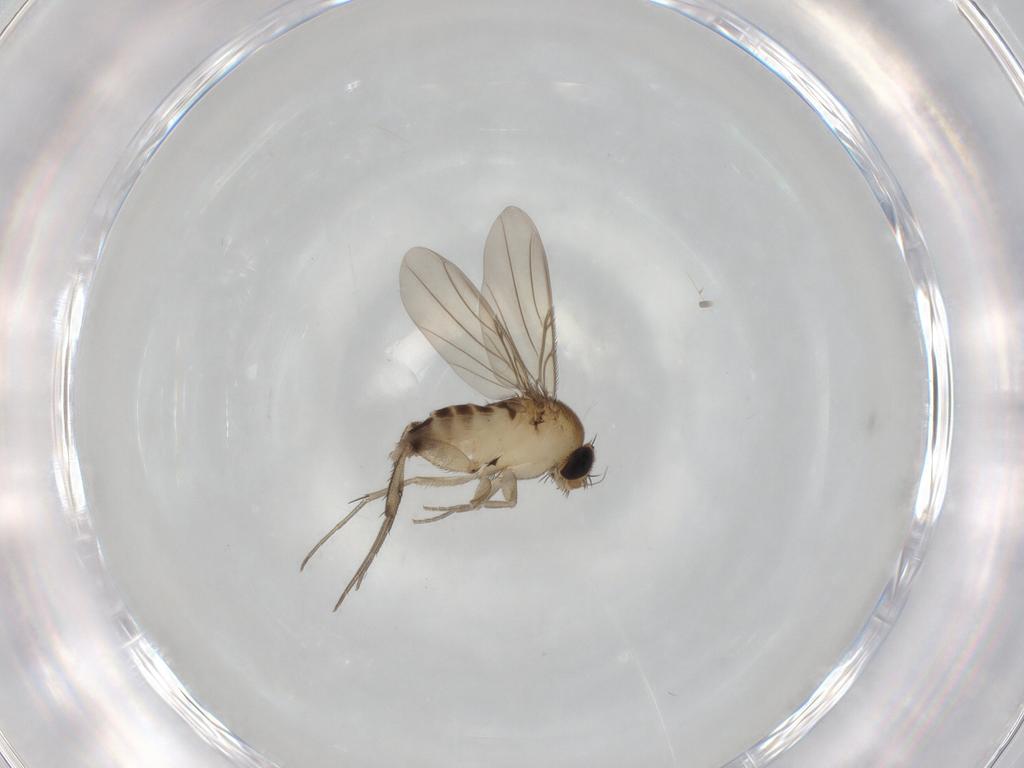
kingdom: Animalia
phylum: Arthropoda
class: Insecta
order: Diptera
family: Phoridae
